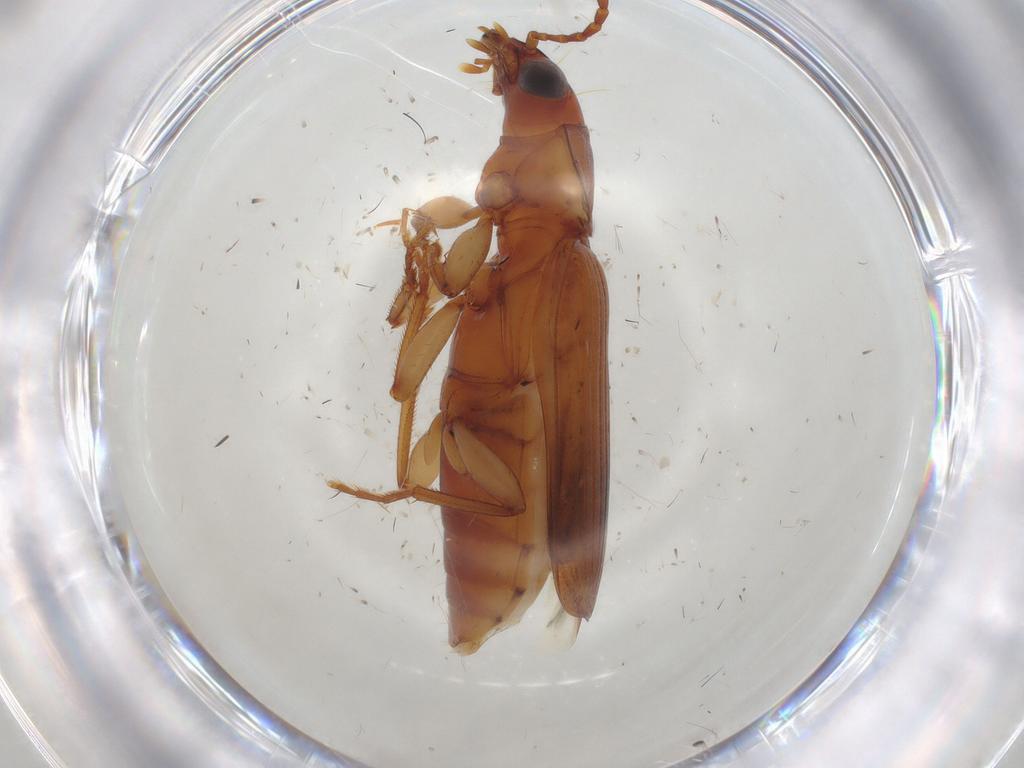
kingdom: Animalia
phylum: Arthropoda
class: Insecta
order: Coleoptera
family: Carabidae
